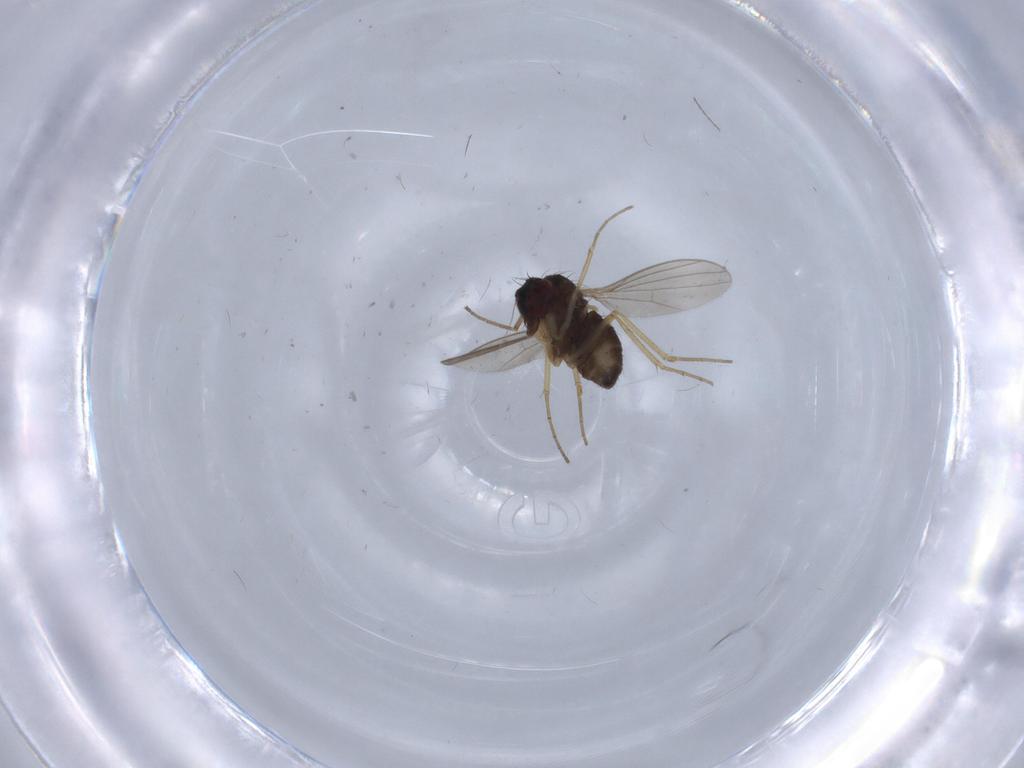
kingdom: Animalia
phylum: Arthropoda
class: Insecta
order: Diptera
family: Dolichopodidae
